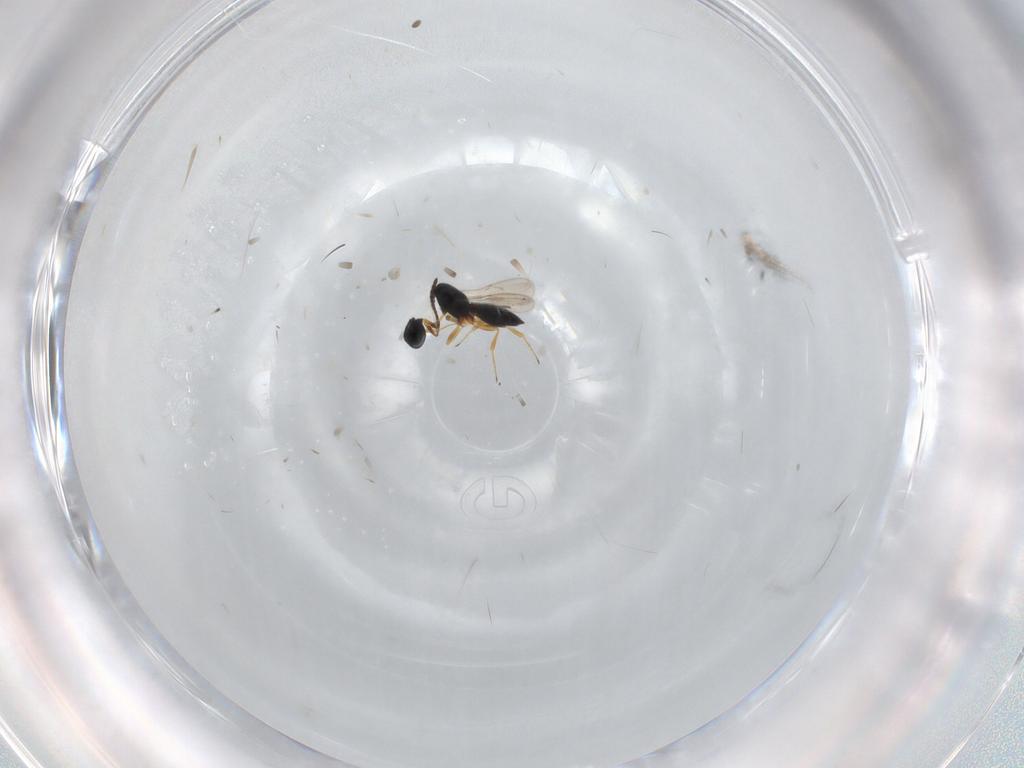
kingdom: Animalia
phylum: Arthropoda
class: Insecta
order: Hymenoptera
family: Scelionidae
